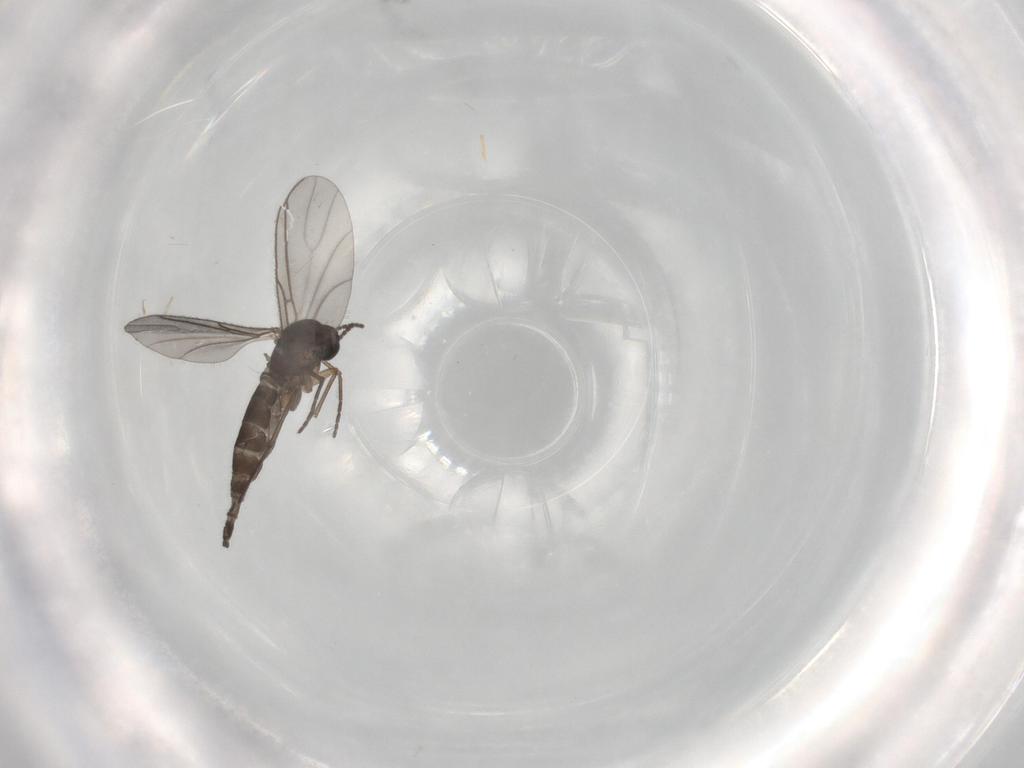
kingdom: Animalia
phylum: Arthropoda
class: Insecta
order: Diptera
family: Sciaridae
